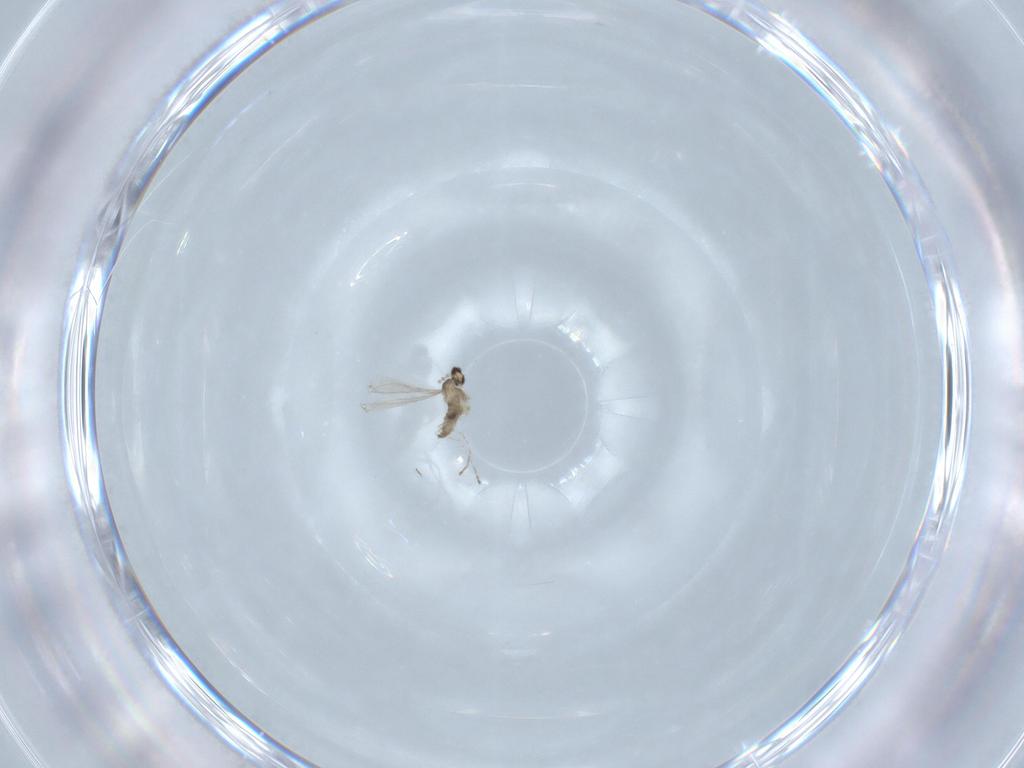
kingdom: Animalia
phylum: Arthropoda
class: Insecta
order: Diptera
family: Cecidomyiidae
